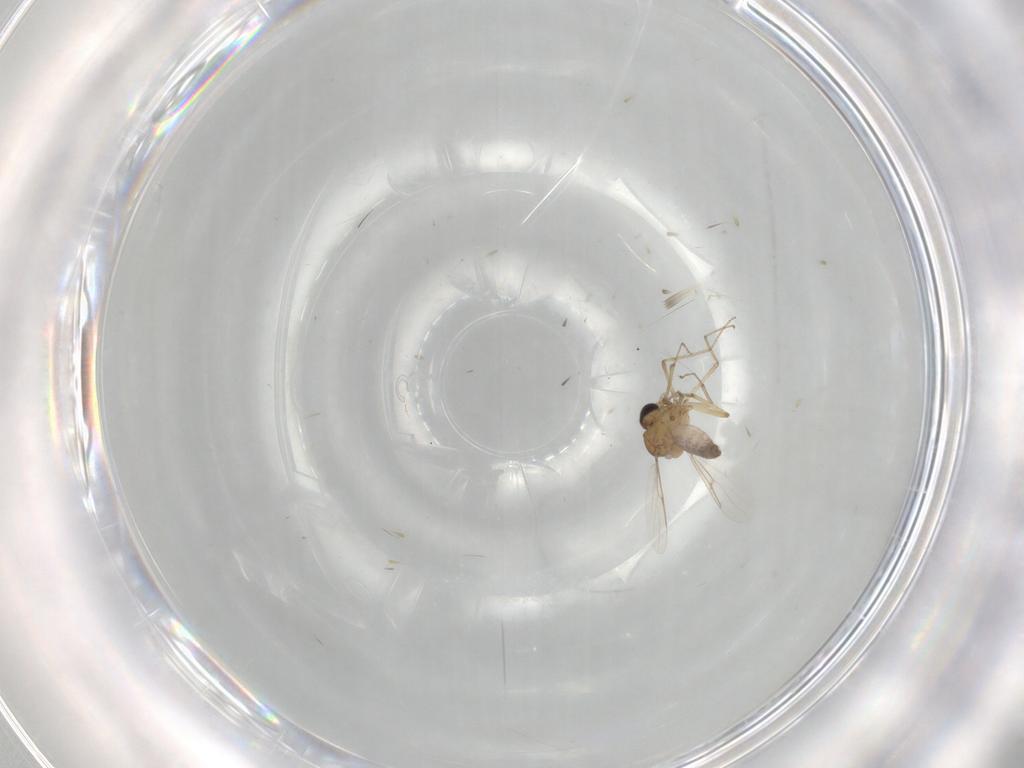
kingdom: Animalia
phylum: Arthropoda
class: Insecta
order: Diptera
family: Ceratopogonidae
